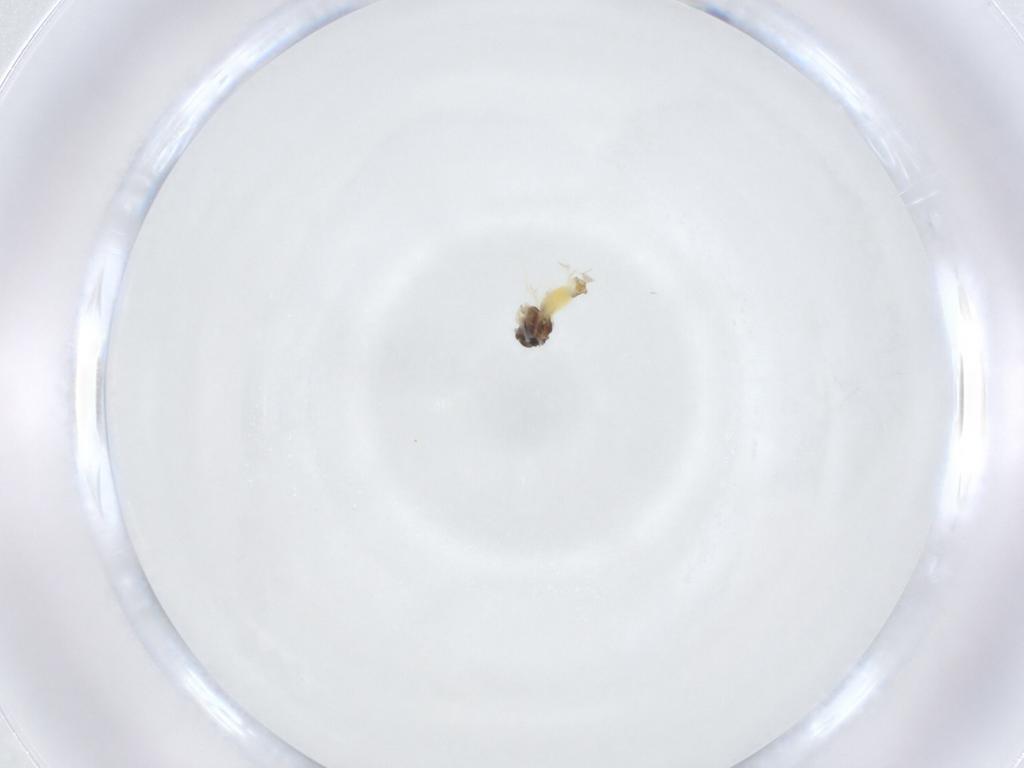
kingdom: Animalia
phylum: Arthropoda
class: Insecta
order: Hemiptera
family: Aleyrodidae
